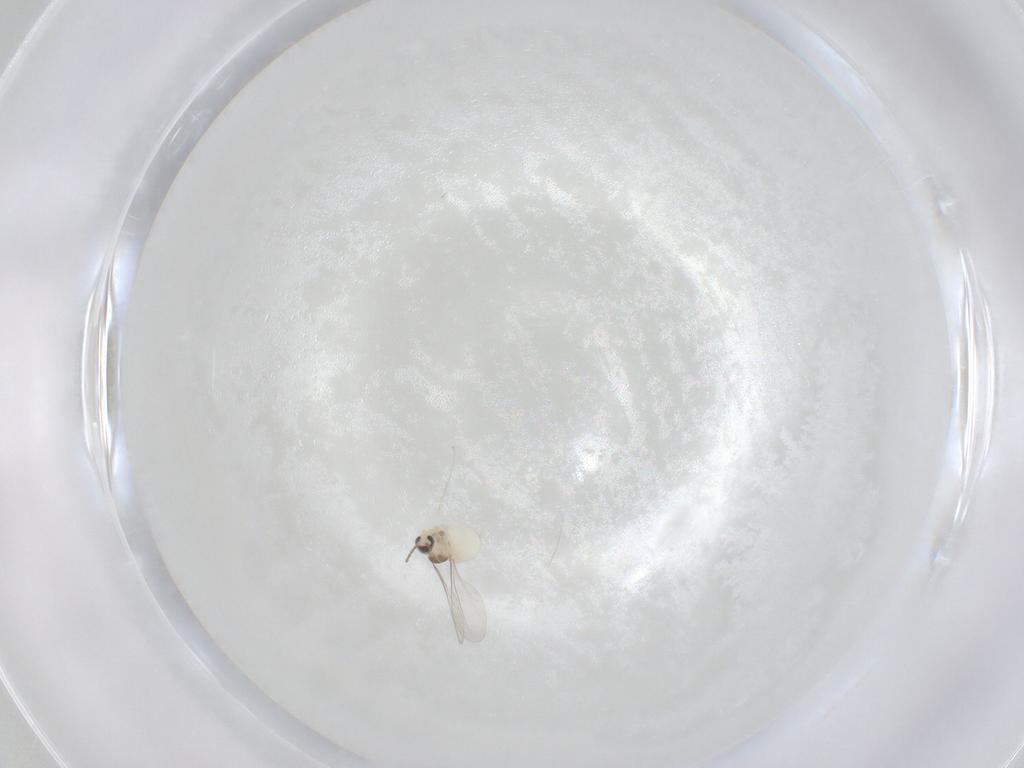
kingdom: Animalia
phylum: Arthropoda
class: Insecta
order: Diptera
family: Cecidomyiidae
